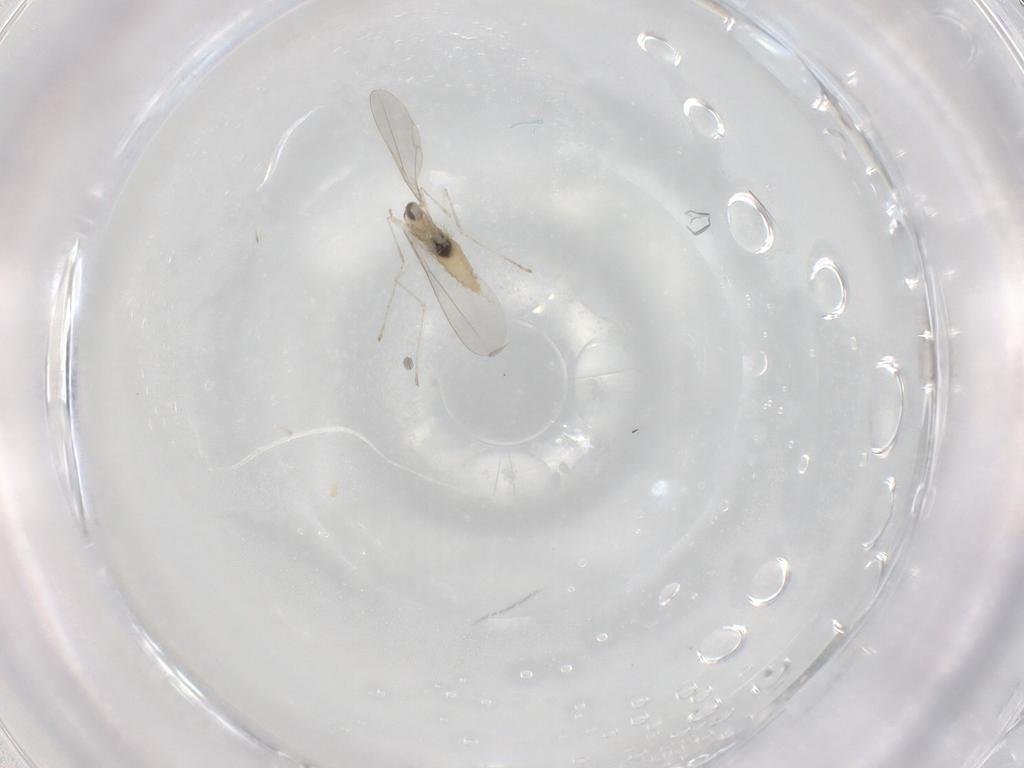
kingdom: Animalia
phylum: Arthropoda
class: Insecta
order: Diptera
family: Cecidomyiidae
